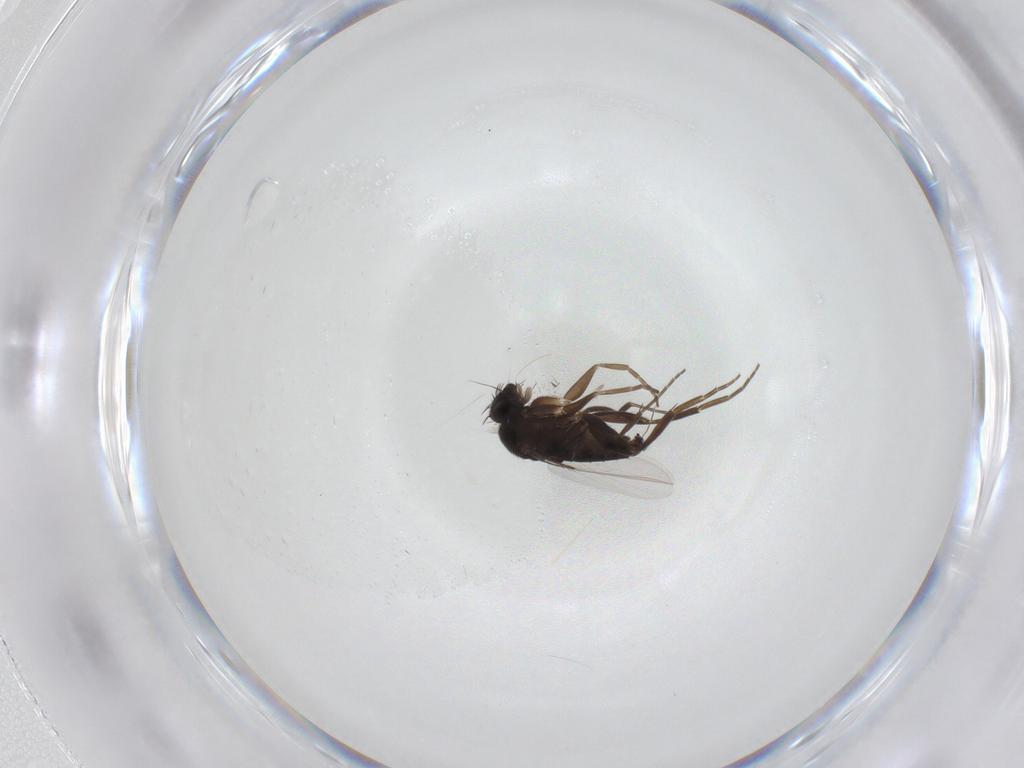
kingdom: Animalia
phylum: Arthropoda
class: Insecta
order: Diptera
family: Phoridae
